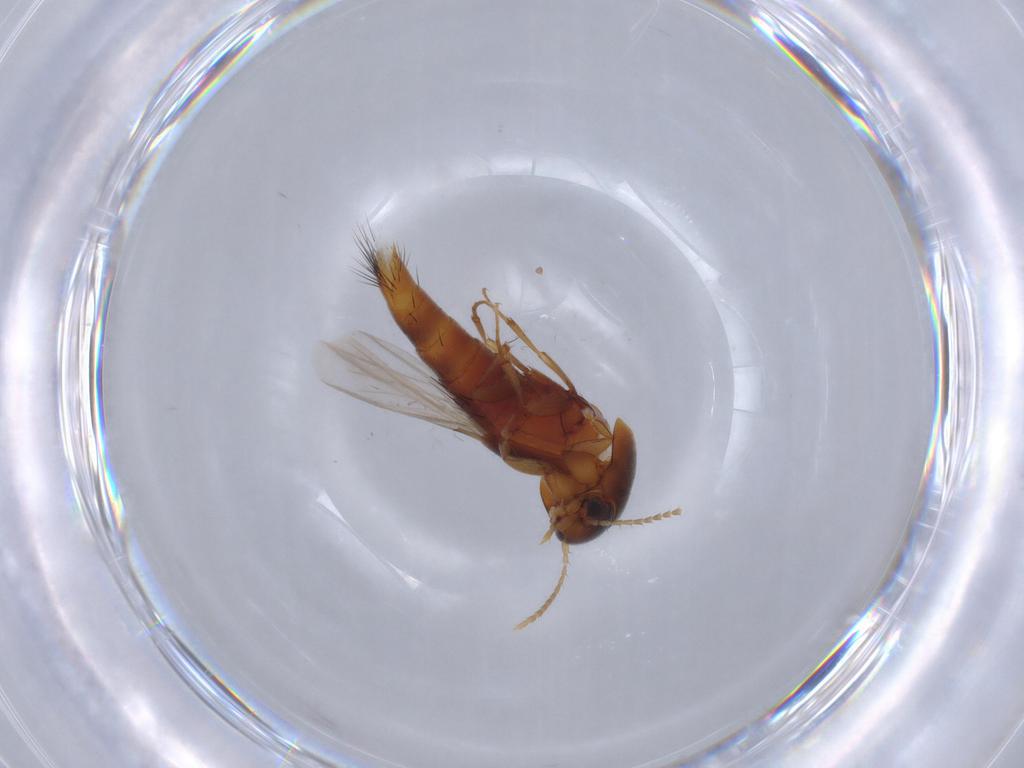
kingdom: Animalia
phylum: Arthropoda
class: Insecta
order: Coleoptera
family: Staphylinidae
